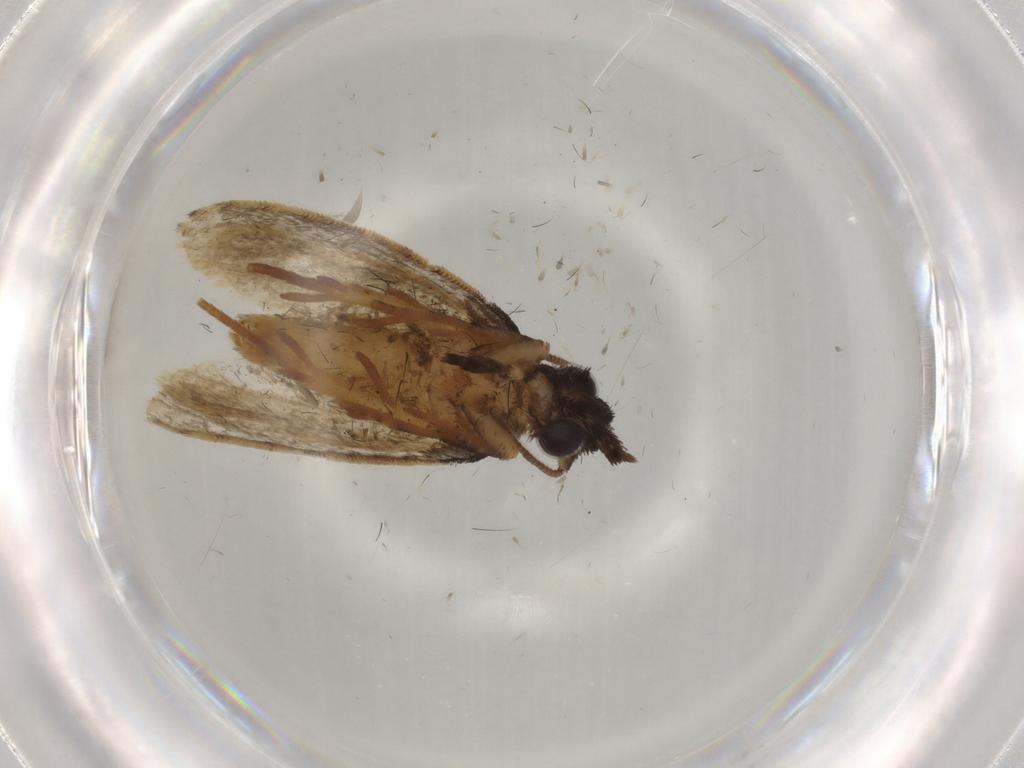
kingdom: Animalia
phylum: Arthropoda
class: Insecta
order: Lepidoptera
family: Psychidae
